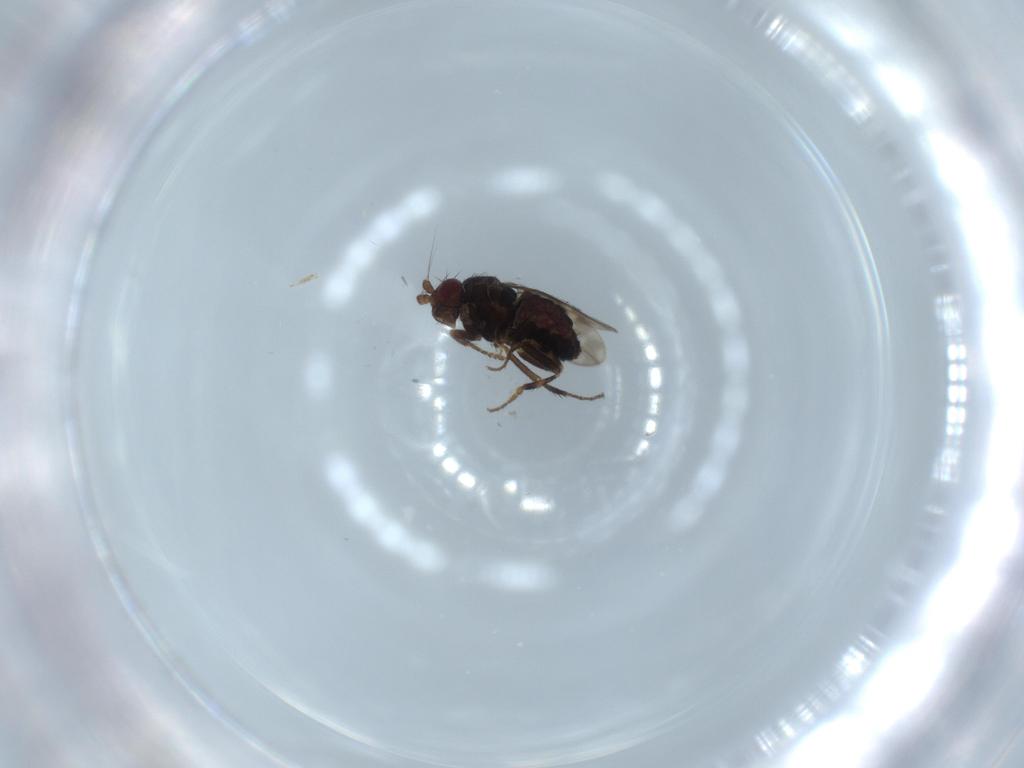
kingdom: Animalia
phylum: Arthropoda
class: Insecta
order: Diptera
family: Sphaeroceridae
